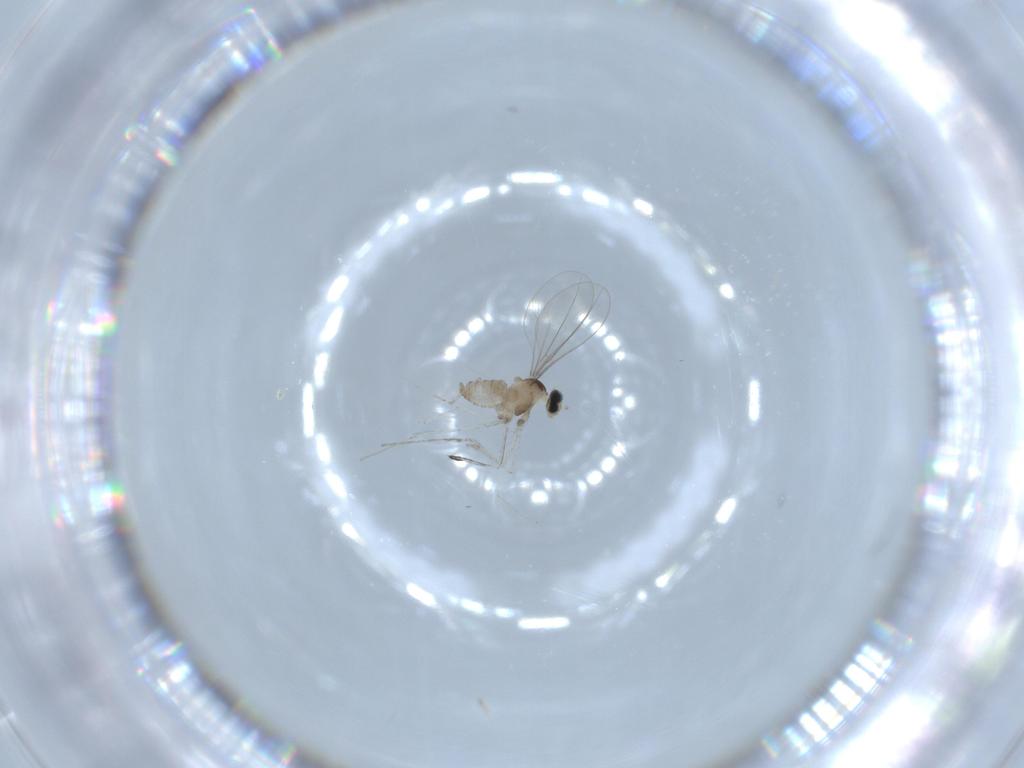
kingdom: Animalia
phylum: Arthropoda
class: Insecta
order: Diptera
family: Cecidomyiidae
